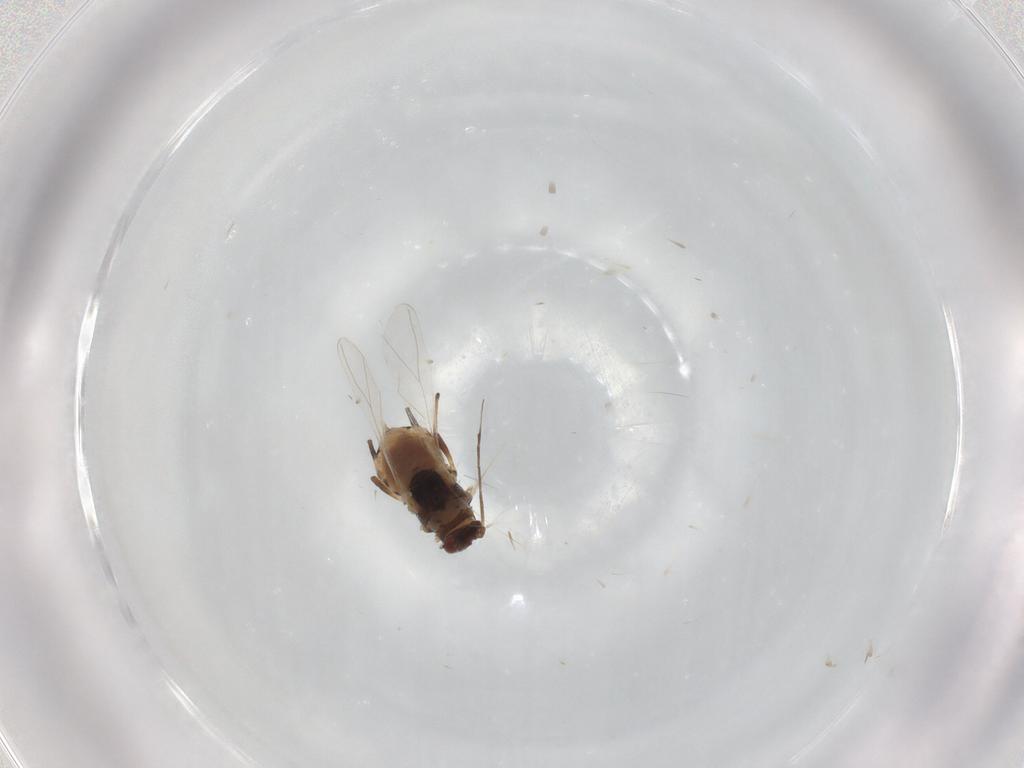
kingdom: Animalia
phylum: Arthropoda
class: Insecta
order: Hemiptera
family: Aphididae
